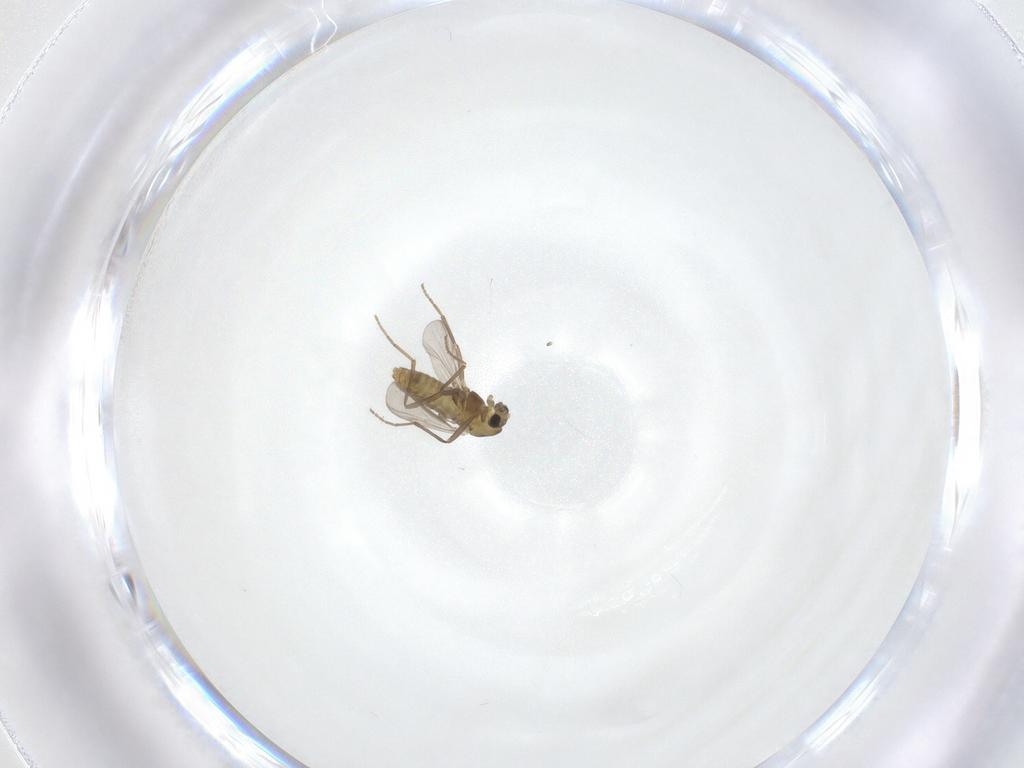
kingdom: Animalia
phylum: Arthropoda
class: Insecta
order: Diptera
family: Chironomidae
